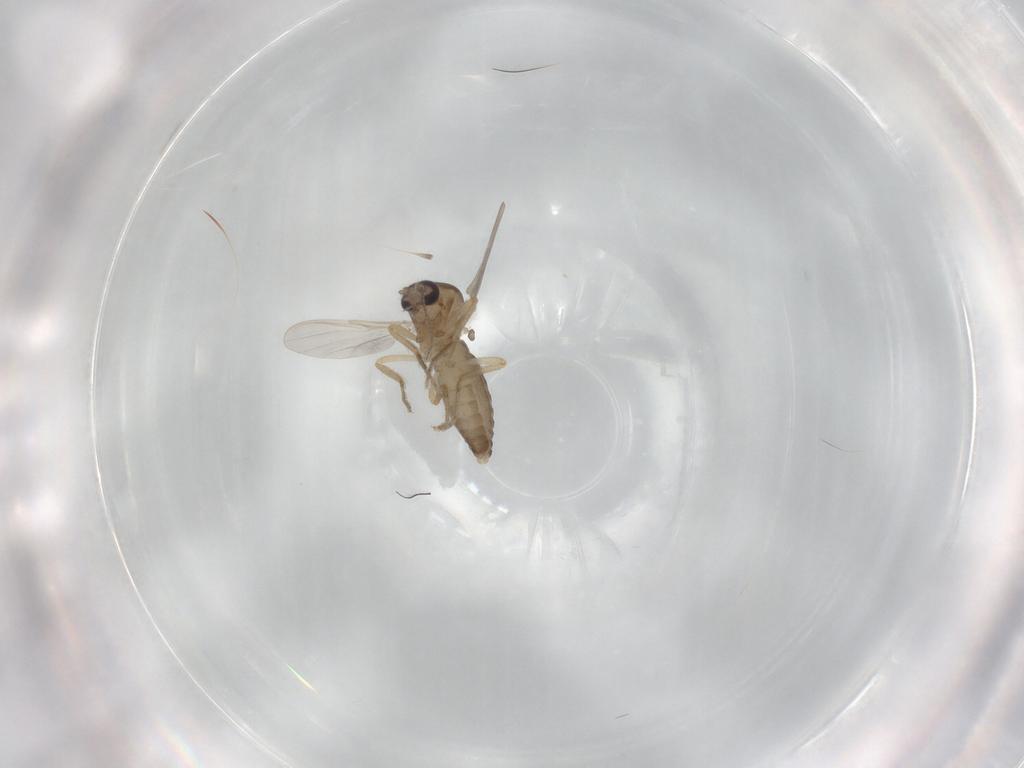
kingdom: Animalia
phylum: Arthropoda
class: Insecta
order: Diptera
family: Ceratopogonidae
